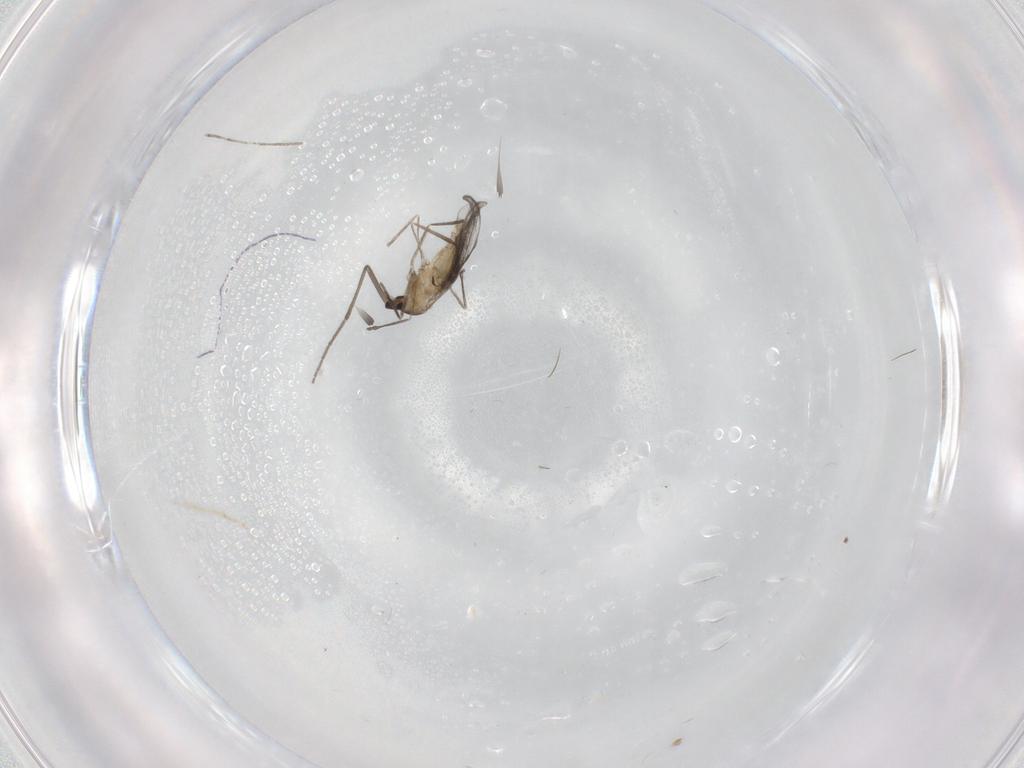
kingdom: Animalia
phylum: Arthropoda
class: Insecta
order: Diptera
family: Cecidomyiidae
